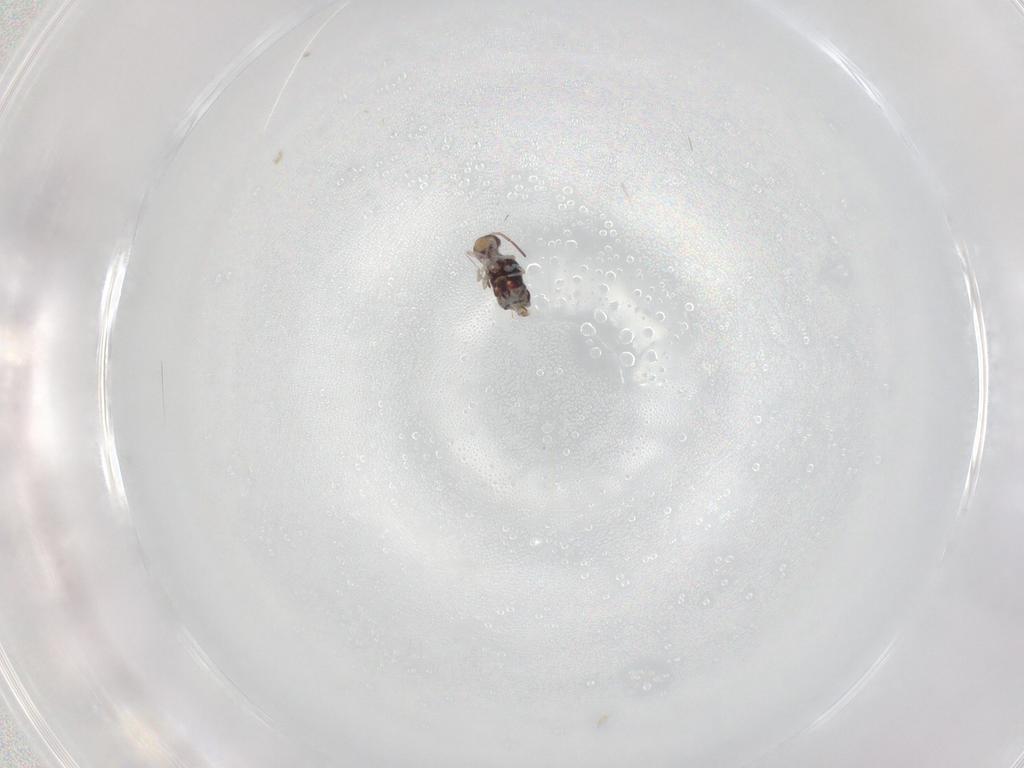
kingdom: Animalia
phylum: Arthropoda
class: Collembola
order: Symphypleona
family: Bourletiellidae
